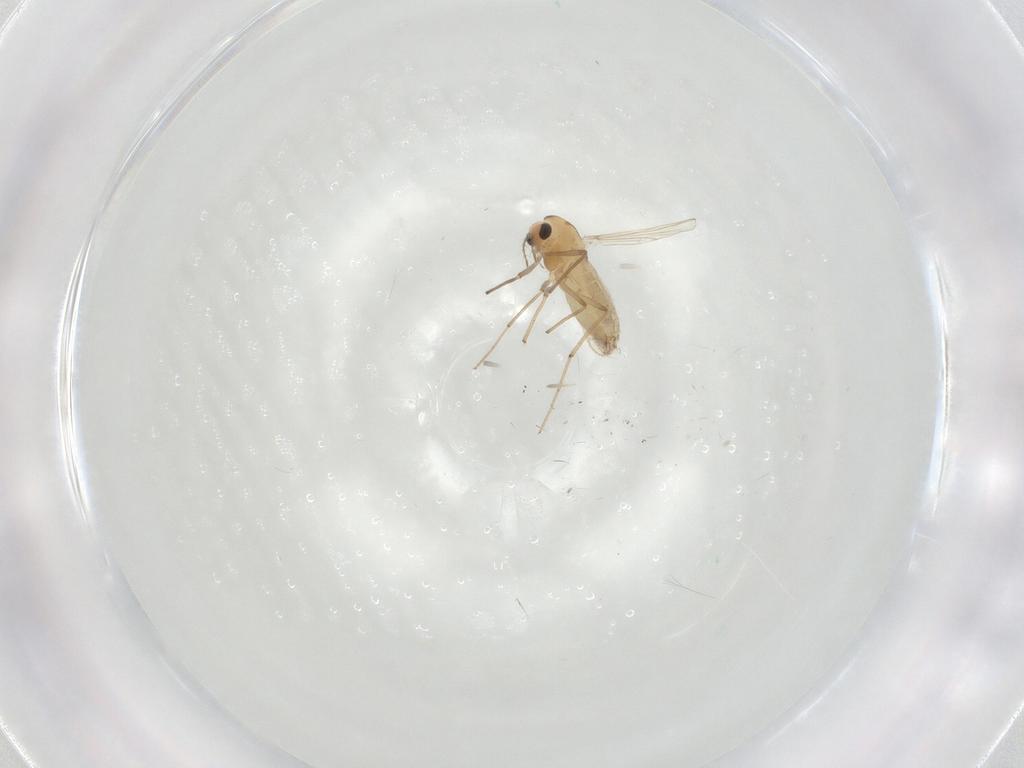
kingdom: Animalia
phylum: Arthropoda
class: Insecta
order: Diptera
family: Chironomidae
